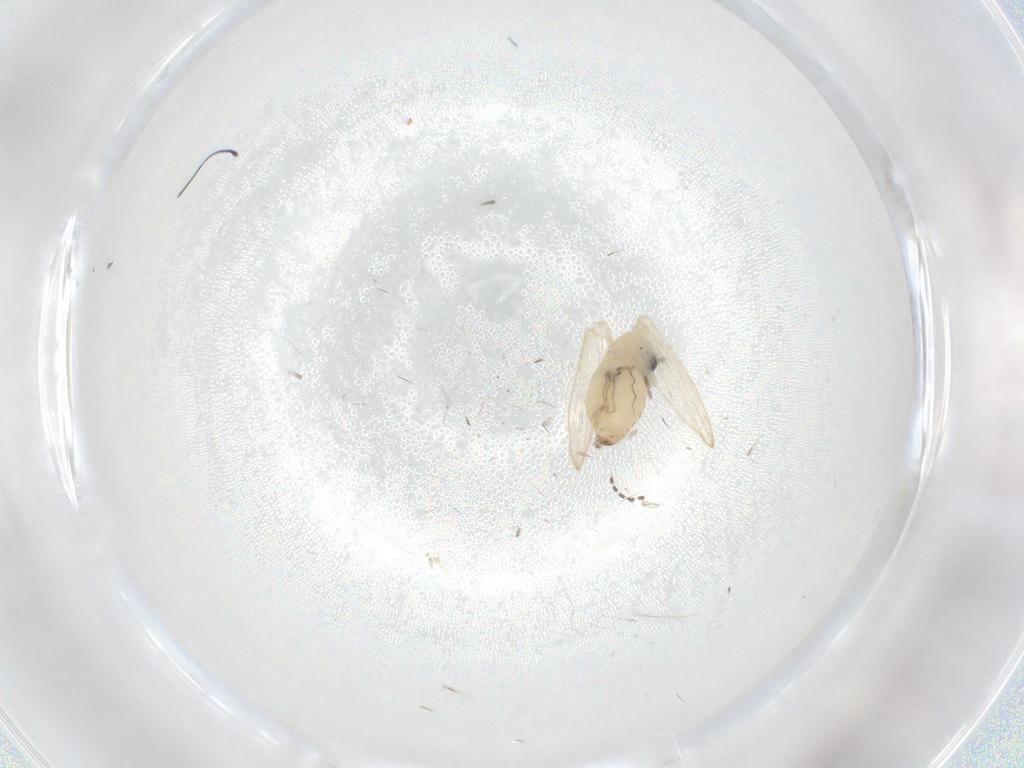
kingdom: Animalia
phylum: Arthropoda
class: Insecta
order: Diptera
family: Psychodidae
